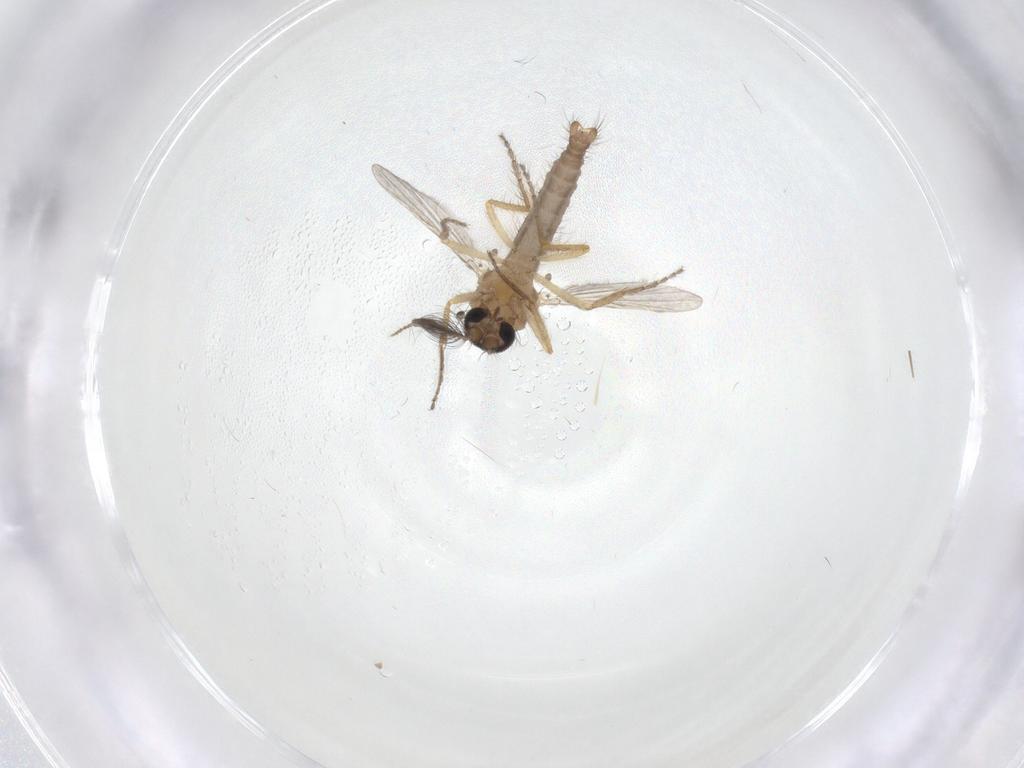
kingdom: Animalia
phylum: Arthropoda
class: Insecta
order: Diptera
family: Ceratopogonidae
